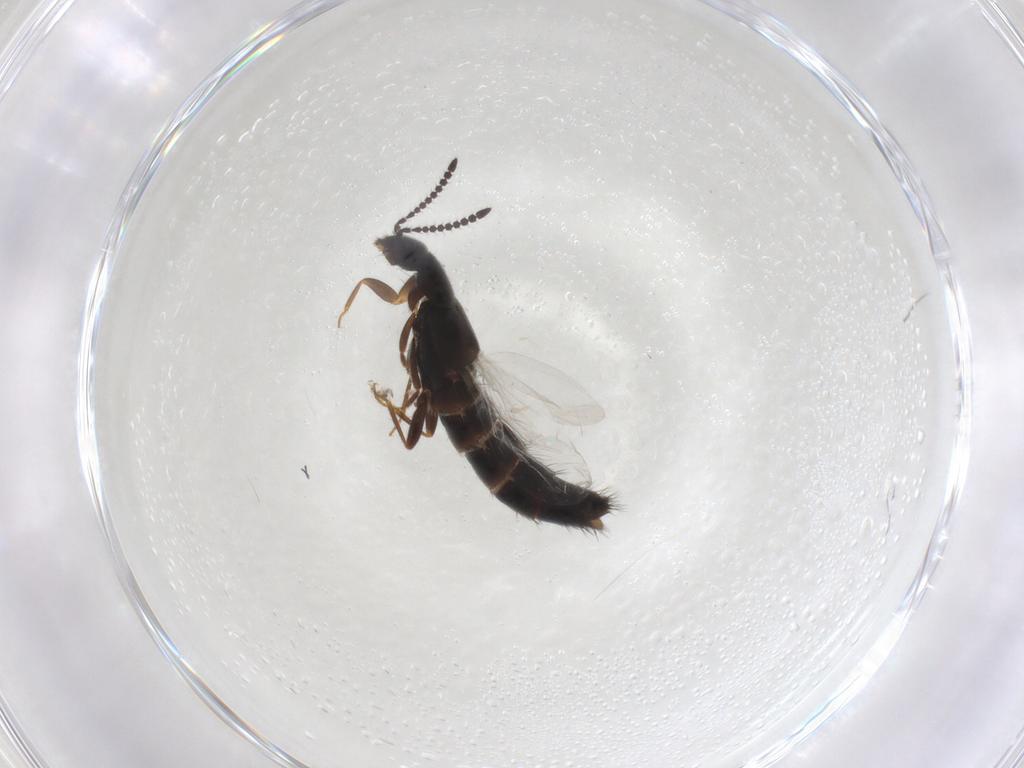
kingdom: Animalia
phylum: Arthropoda
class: Insecta
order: Coleoptera
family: Staphylinidae
